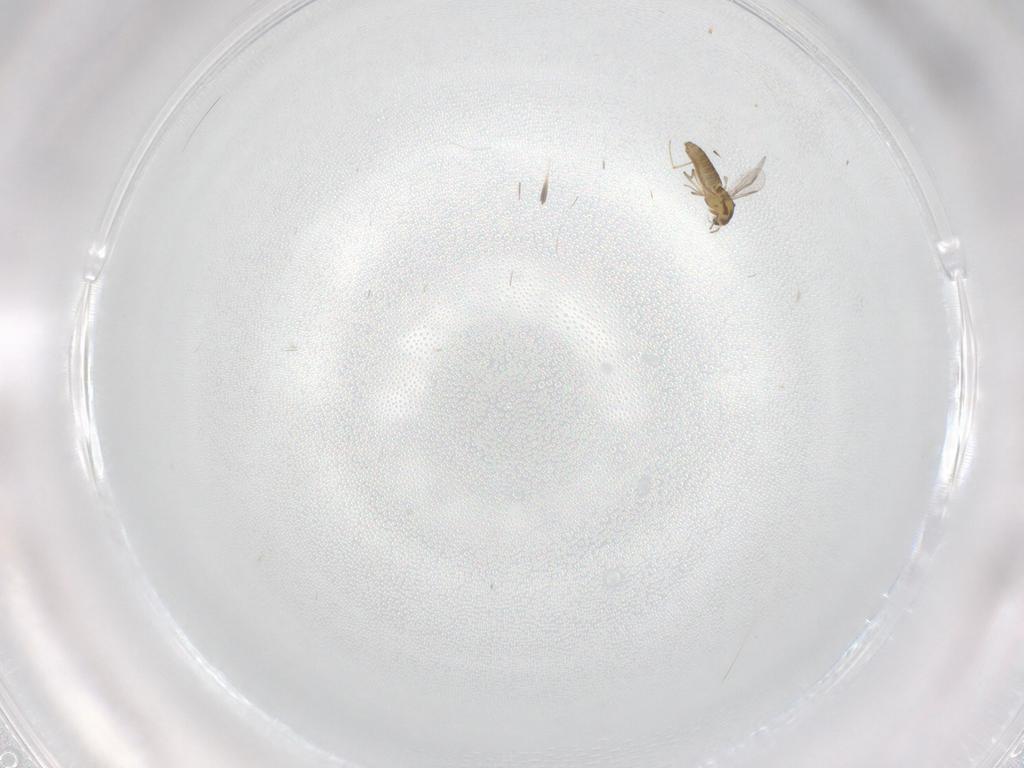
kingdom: Animalia
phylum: Arthropoda
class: Insecta
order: Diptera
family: Chironomidae
